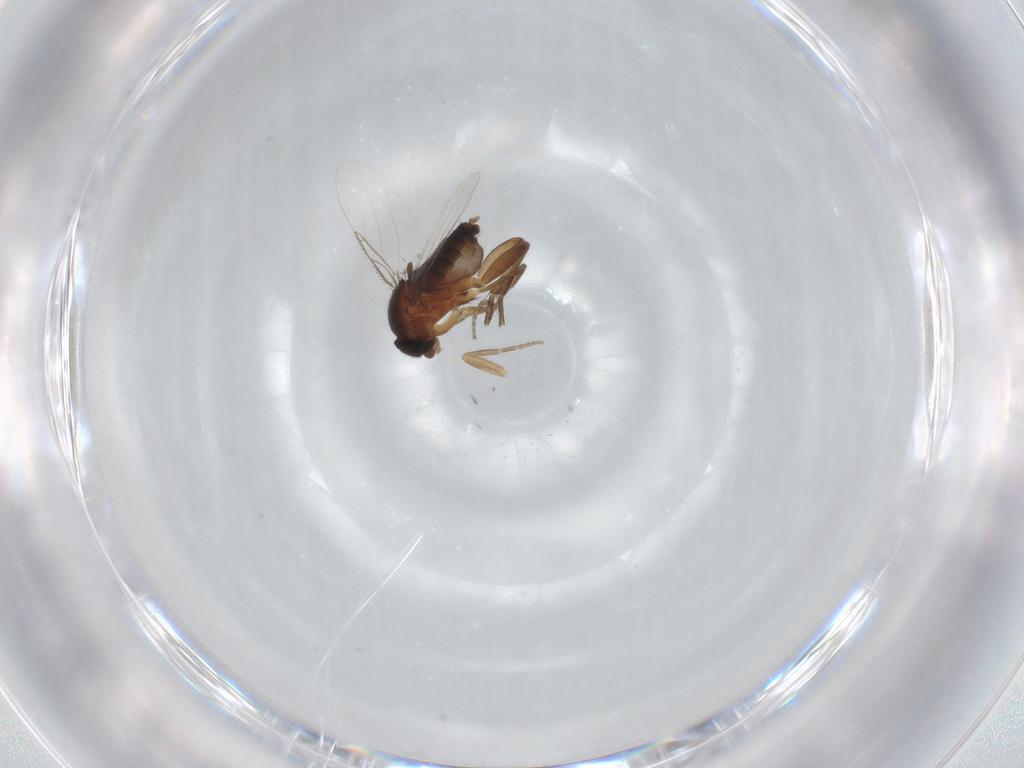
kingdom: Animalia
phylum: Arthropoda
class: Insecta
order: Diptera
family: Phoridae
